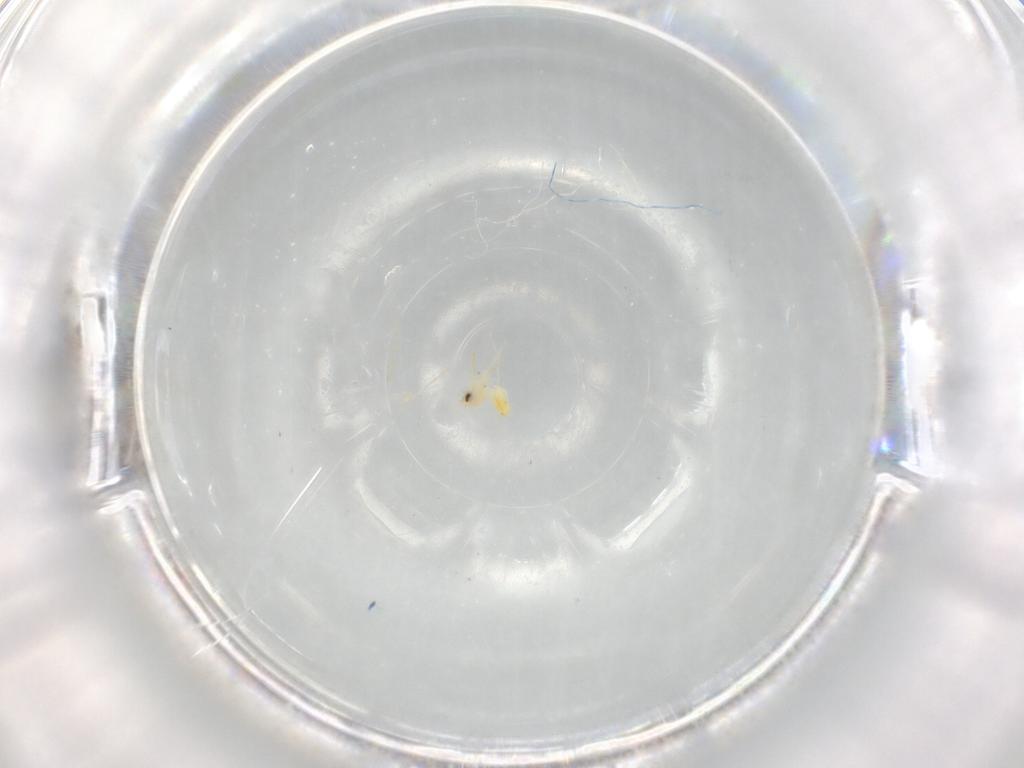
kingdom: Animalia
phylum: Arthropoda
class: Insecta
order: Hemiptera
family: Aleyrodidae
